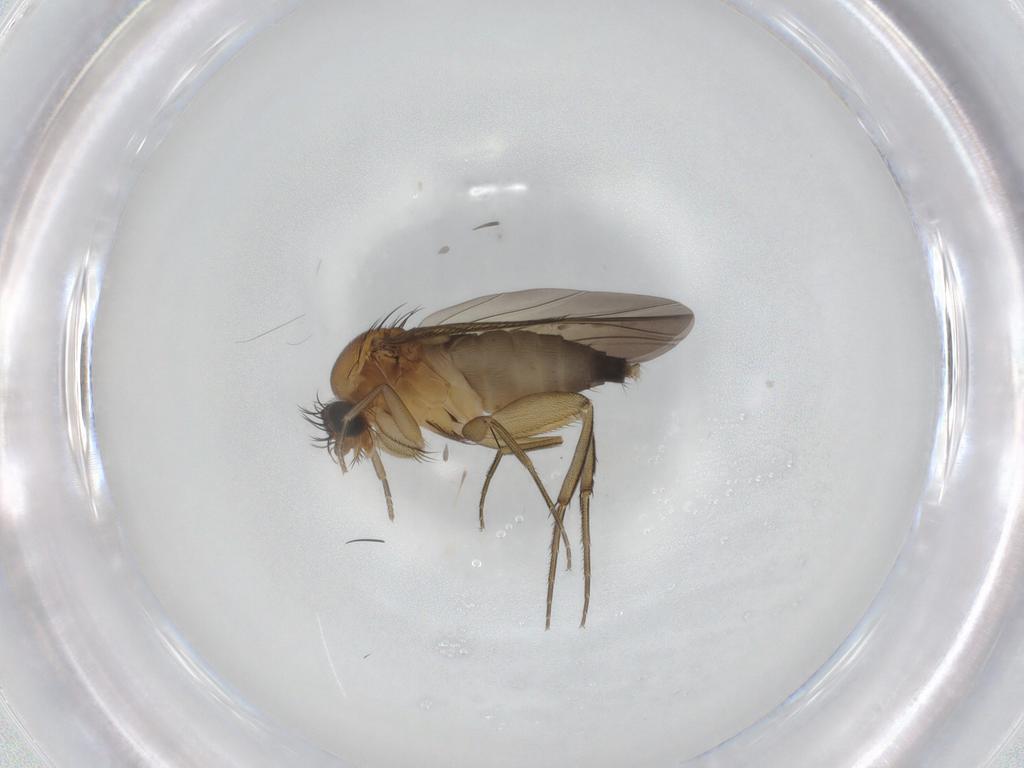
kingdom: Animalia
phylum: Arthropoda
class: Insecta
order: Diptera
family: Phoridae
